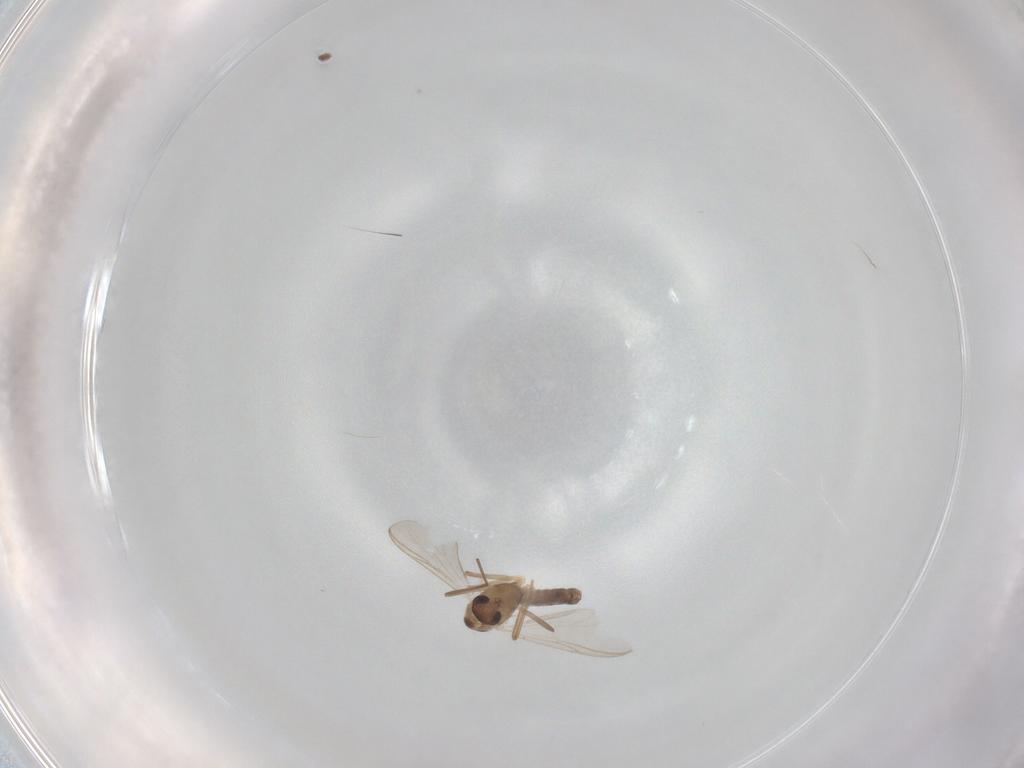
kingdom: Animalia
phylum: Arthropoda
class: Insecta
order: Diptera
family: Chironomidae
